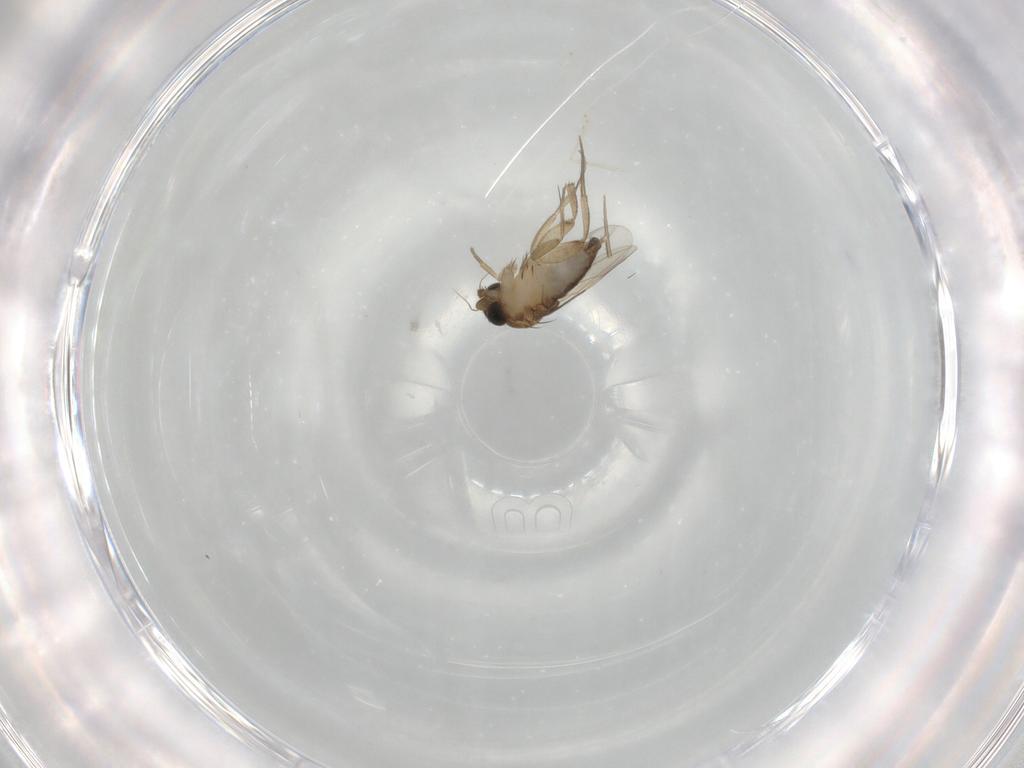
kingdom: Animalia
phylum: Arthropoda
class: Insecta
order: Diptera
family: Phoridae
